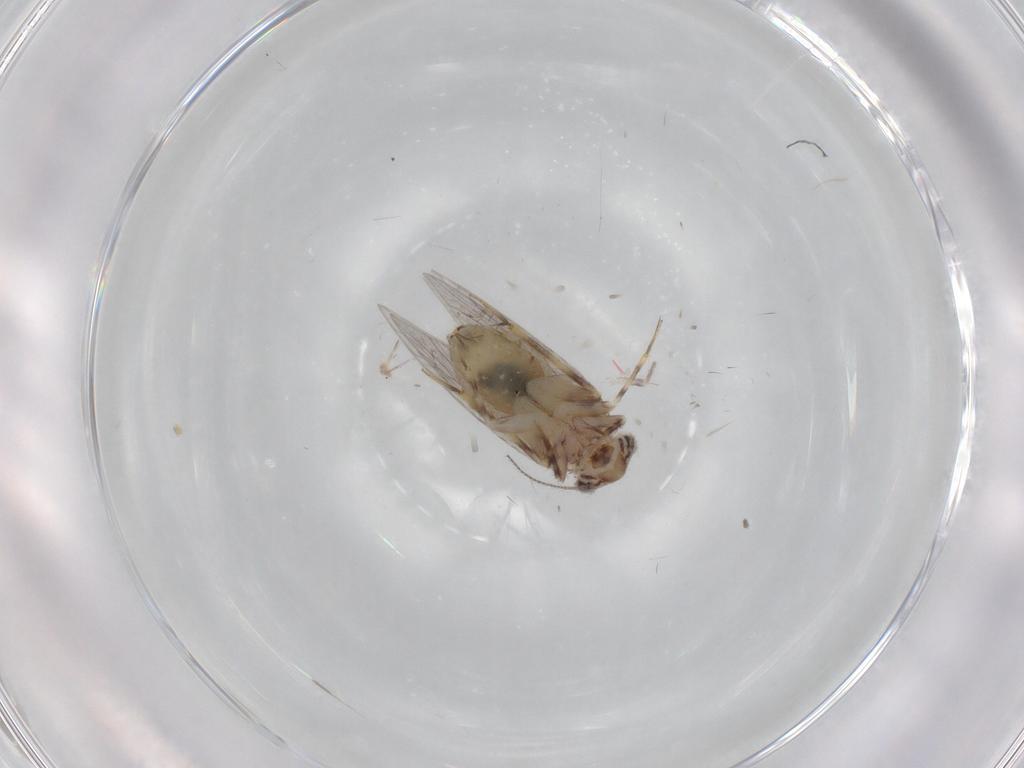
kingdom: Animalia
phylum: Arthropoda
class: Insecta
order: Psocodea
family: Lepidopsocidae
